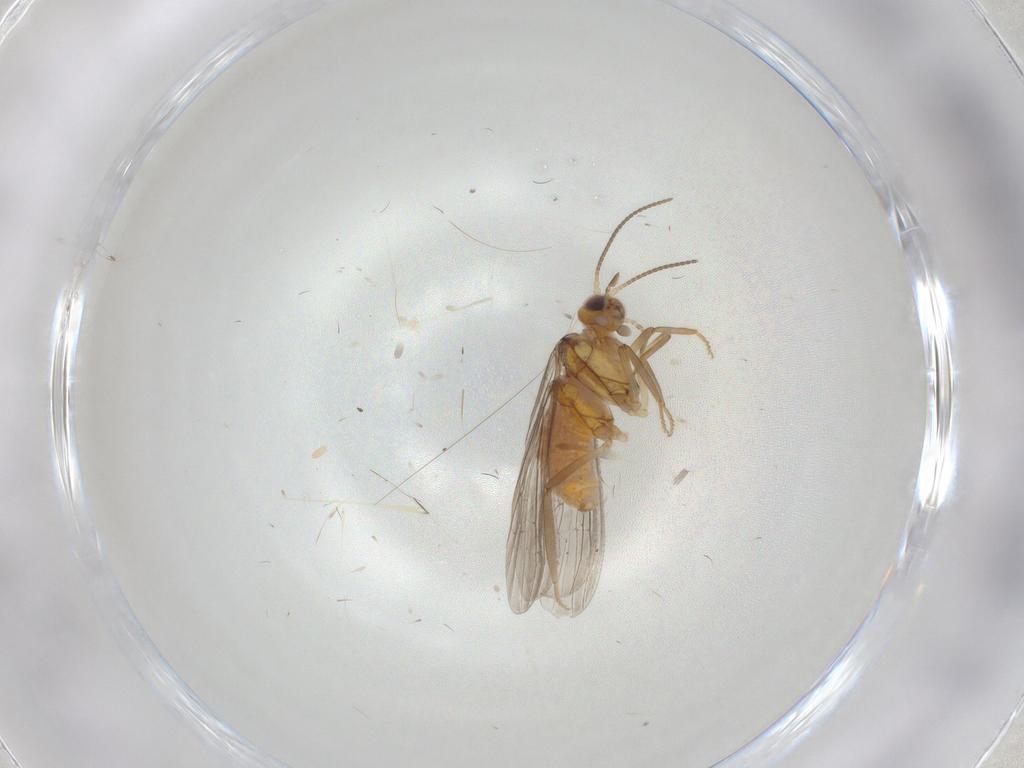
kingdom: Animalia
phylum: Arthropoda
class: Insecta
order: Neuroptera
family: Coniopterygidae
